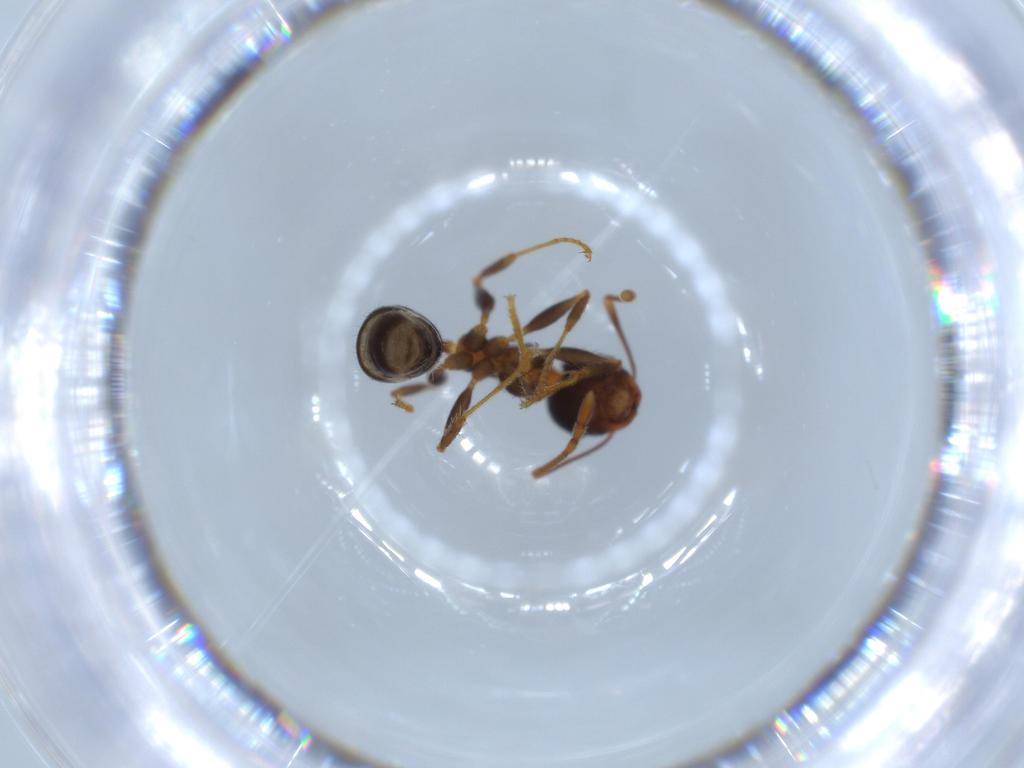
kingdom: Animalia
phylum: Arthropoda
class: Insecta
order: Hymenoptera
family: Formicidae
